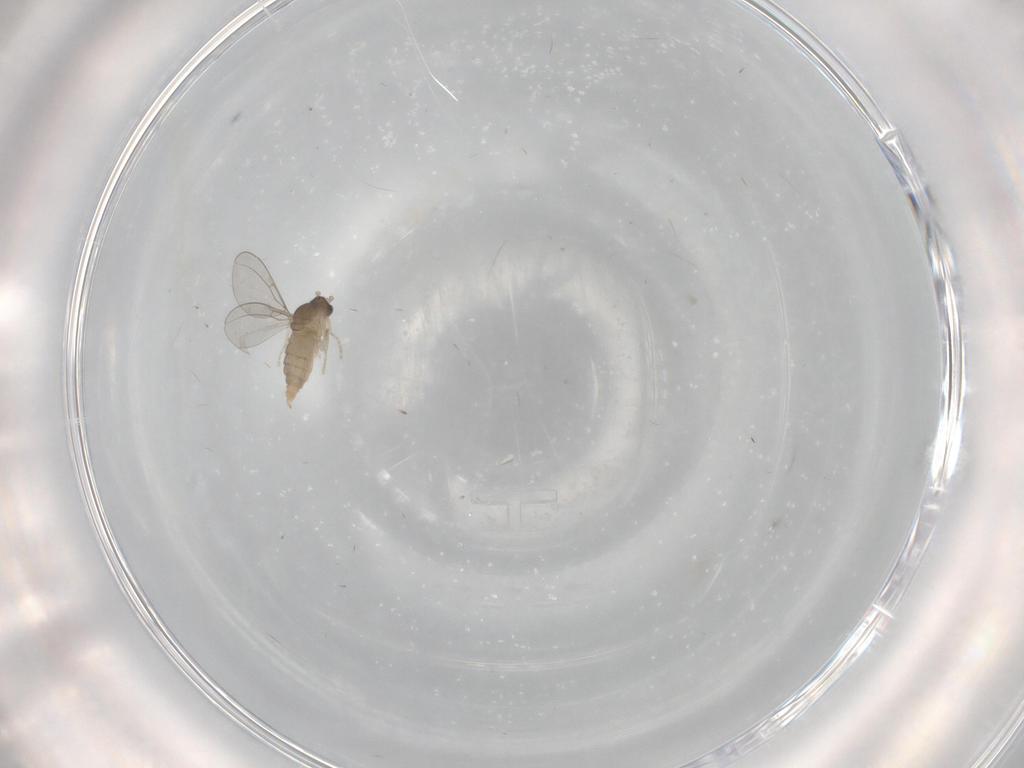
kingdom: Animalia
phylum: Arthropoda
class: Insecta
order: Diptera
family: Cecidomyiidae
